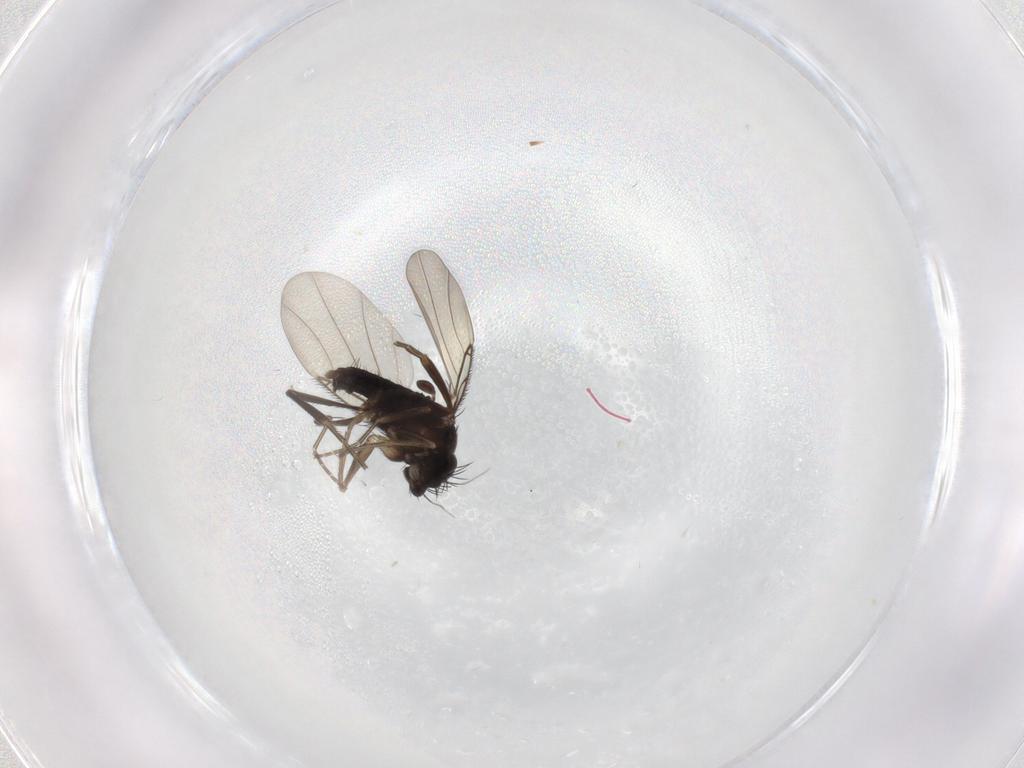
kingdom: Animalia
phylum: Arthropoda
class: Insecta
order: Diptera
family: Phoridae
